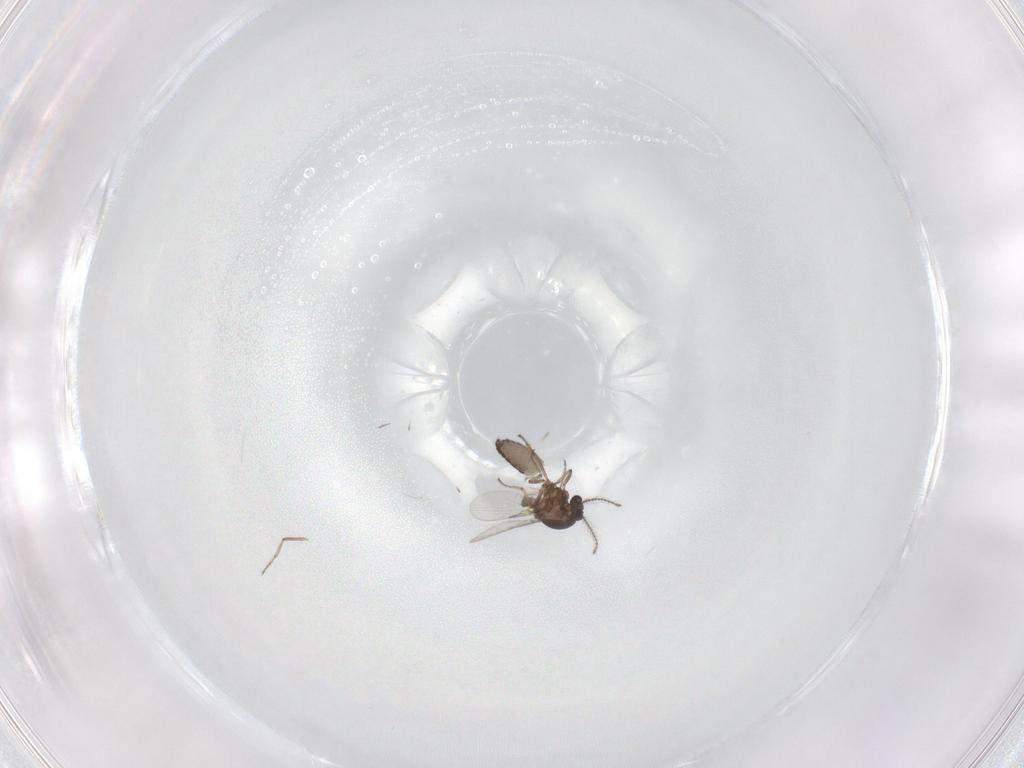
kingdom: Animalia
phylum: Arthropoda
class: Insecta
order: Diptera
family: Ceratopogonidae
